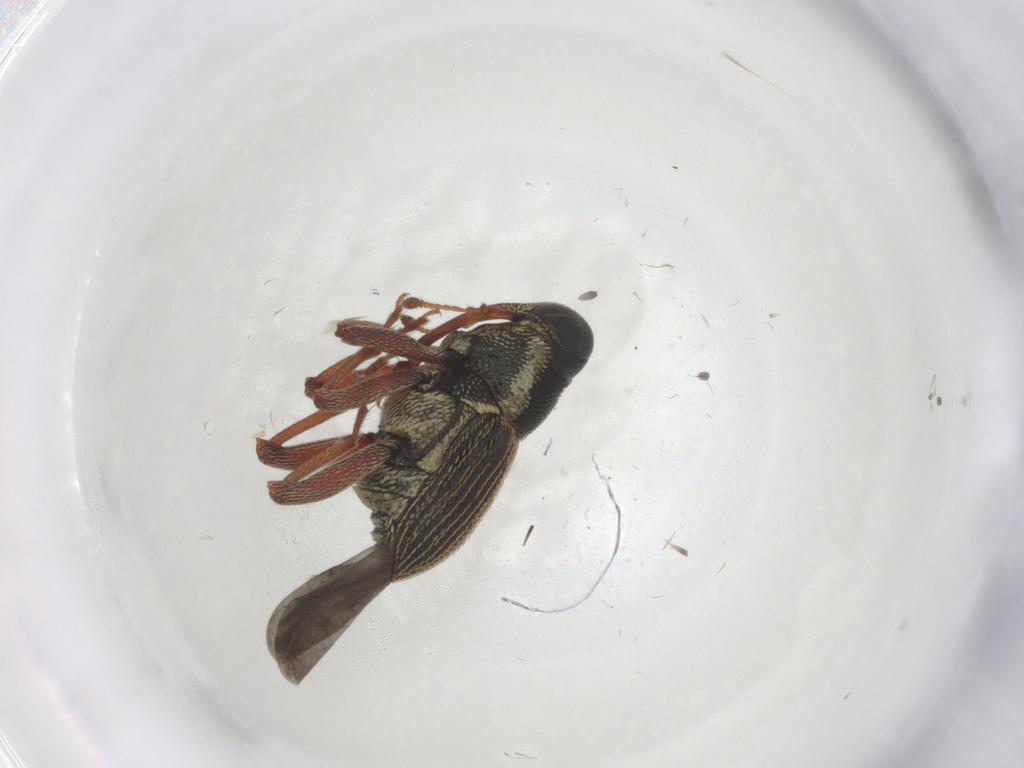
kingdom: Animalia
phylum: Arthropoda
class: Insecta
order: Coleoptera
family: Curculionidae
